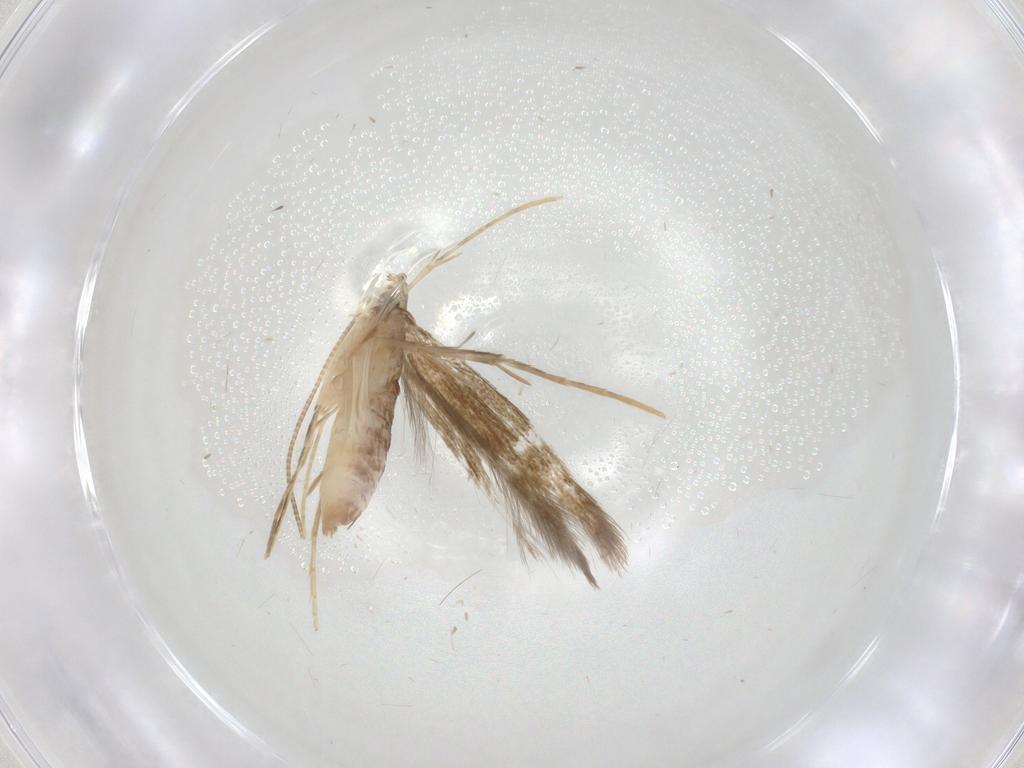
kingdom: Animalia
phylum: Arthropoda
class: Insecta
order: Lepidoptera
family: Psychidae
